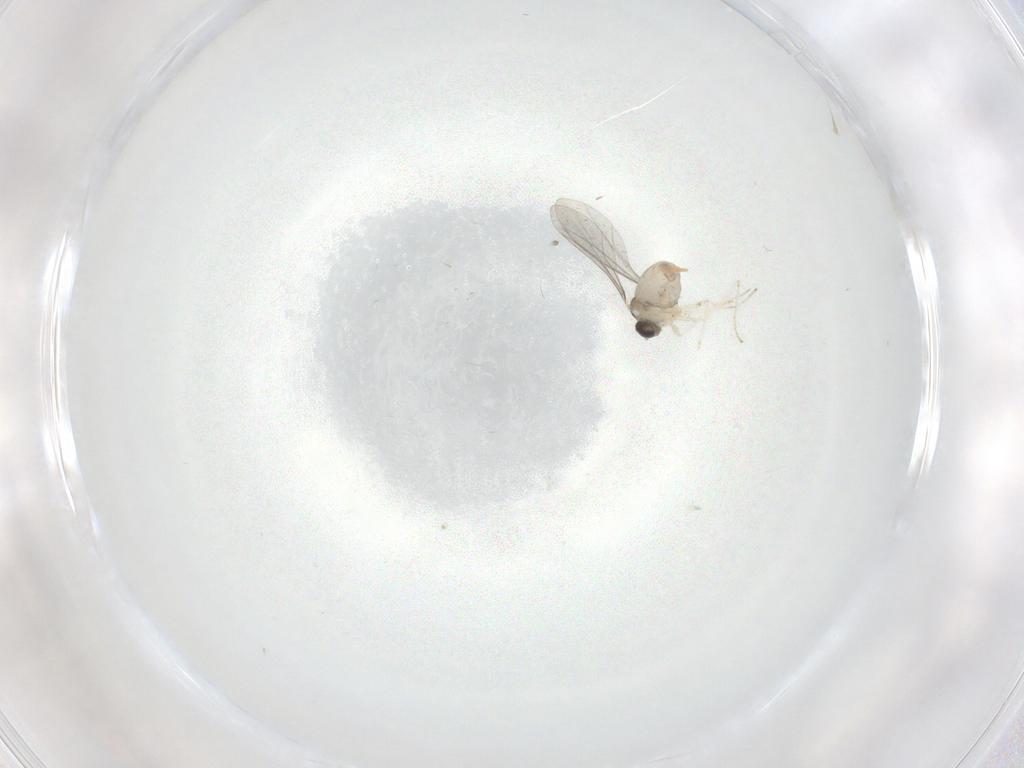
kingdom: Animalia
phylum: Arthropoda
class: Insecta
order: Diptera
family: Cecidomyiidae
